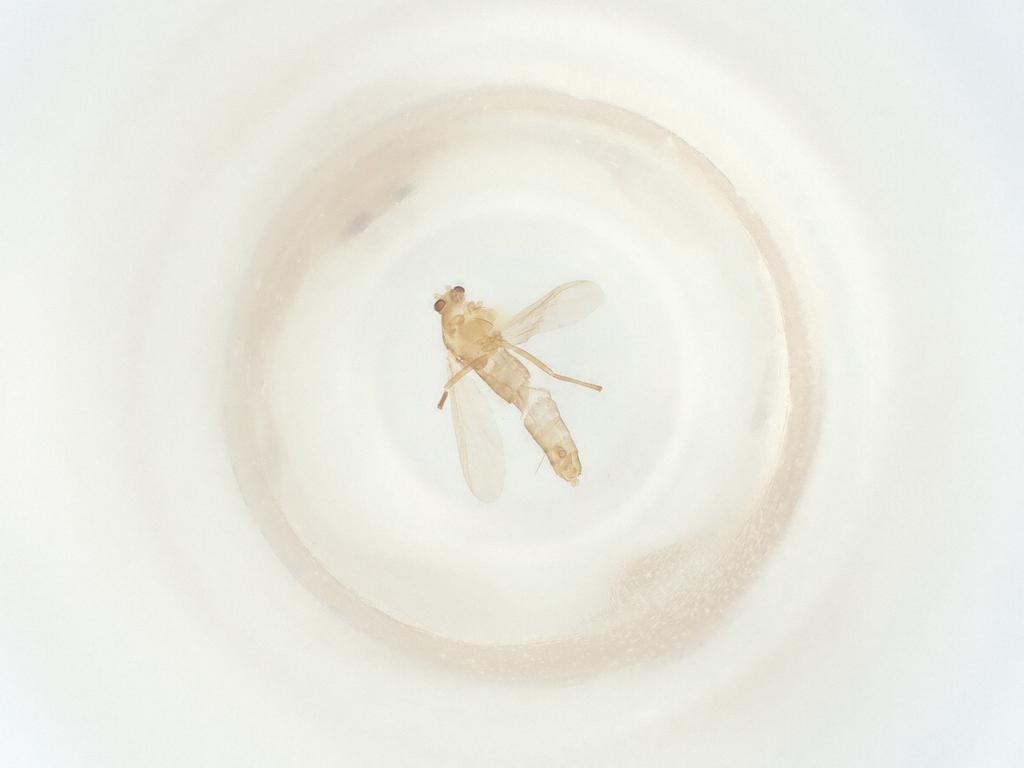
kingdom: Animalia
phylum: Arthropoda
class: Insecta
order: Diptera
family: Chironomidae
